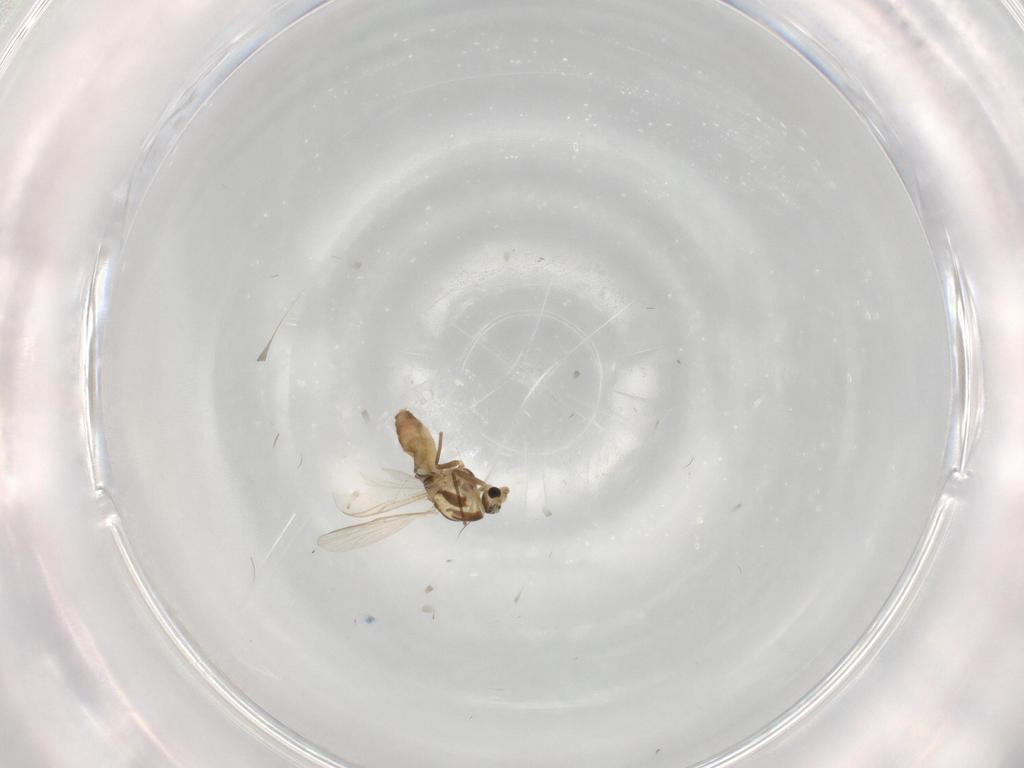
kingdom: Animalia
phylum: Arthropoda
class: Insecta
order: Diptera
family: Chironomidae
